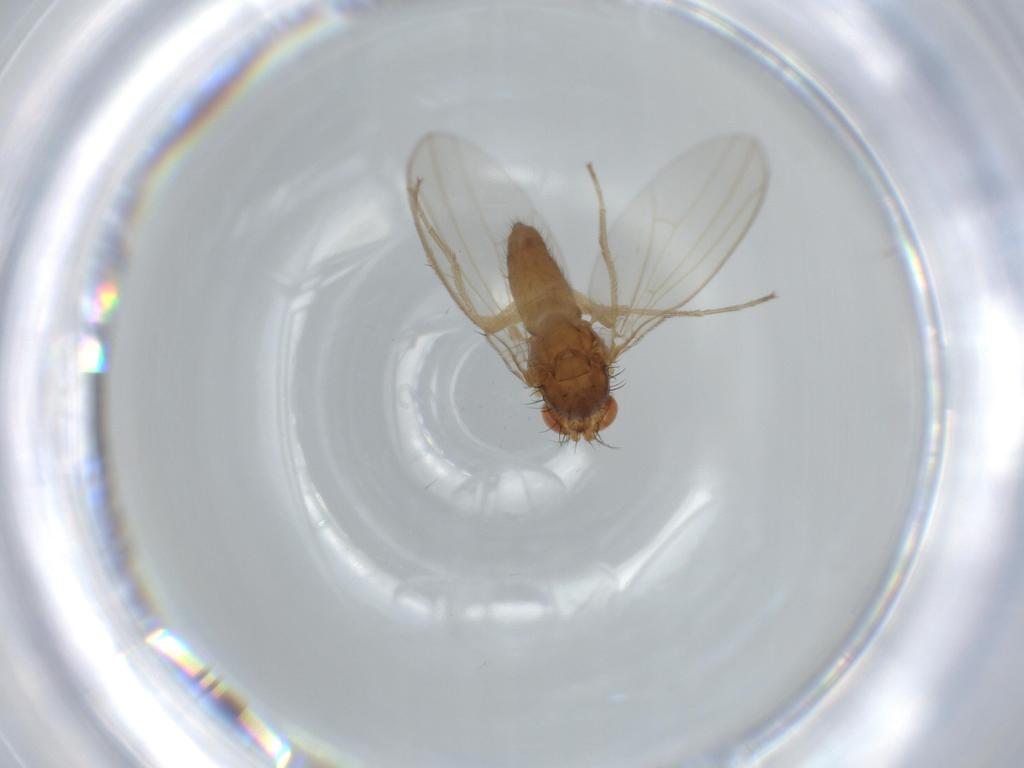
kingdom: Animalia
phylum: Arthropoda
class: Insecta
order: Diptera
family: Drosophilidae
